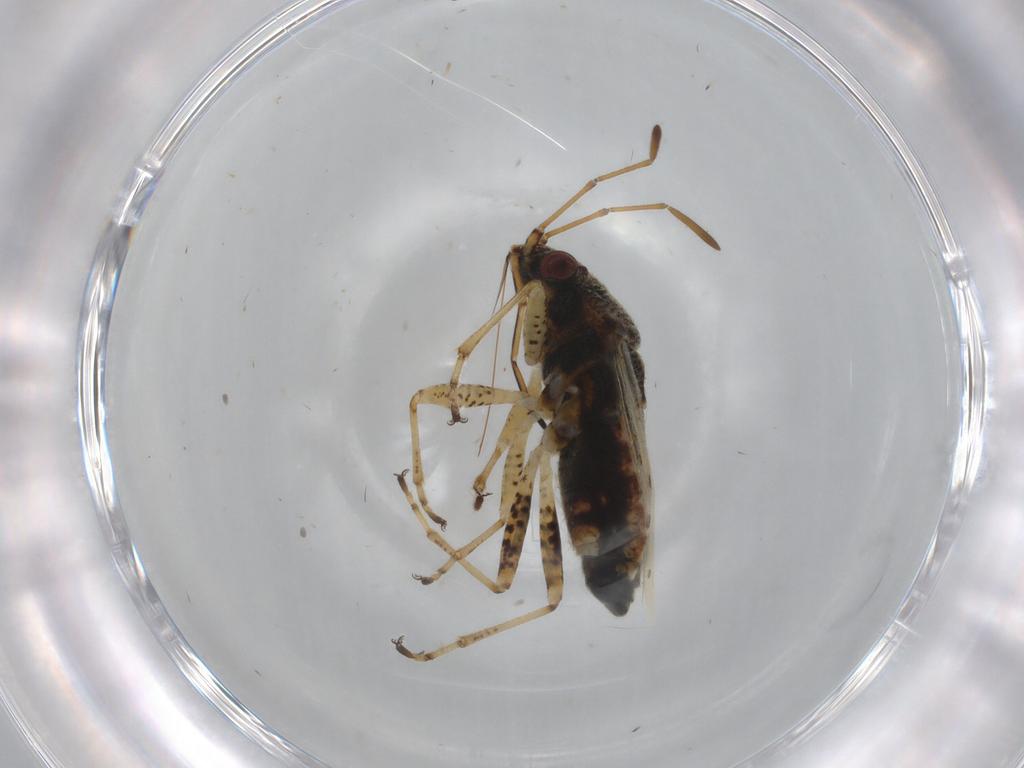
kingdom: Animalia
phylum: Arthropoda
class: Insecta
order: Hemiptera
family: Lygaeidae
